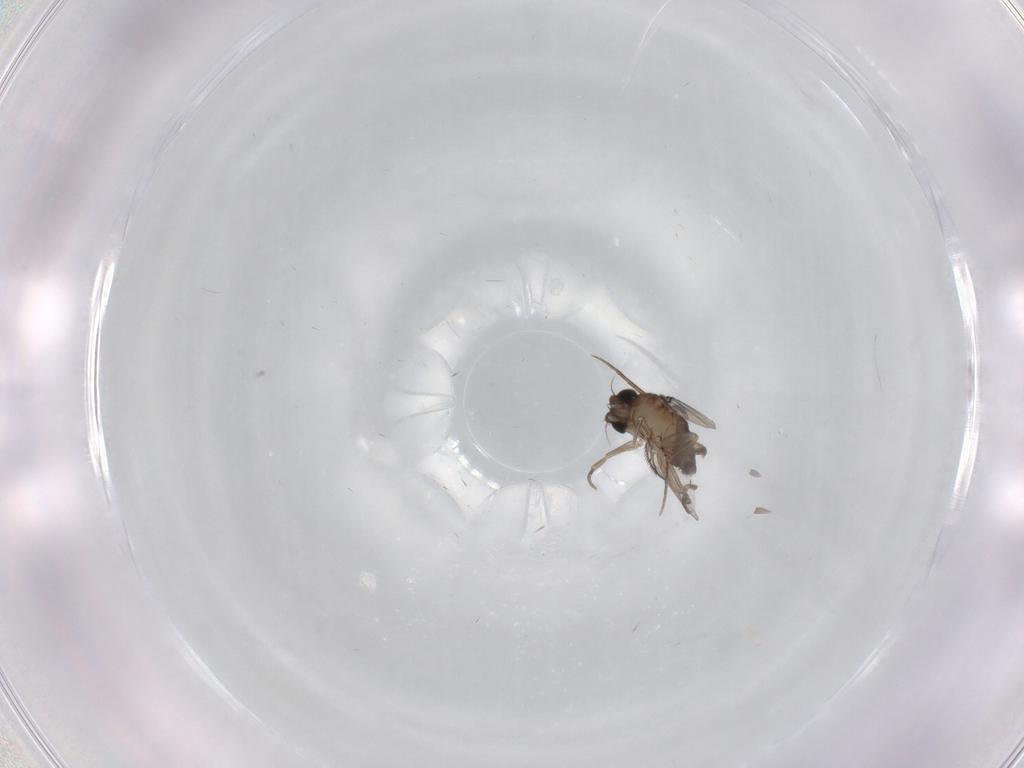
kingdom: Animalia
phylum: Arthropoda
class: Insecta
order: Diptera
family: Phoridae
